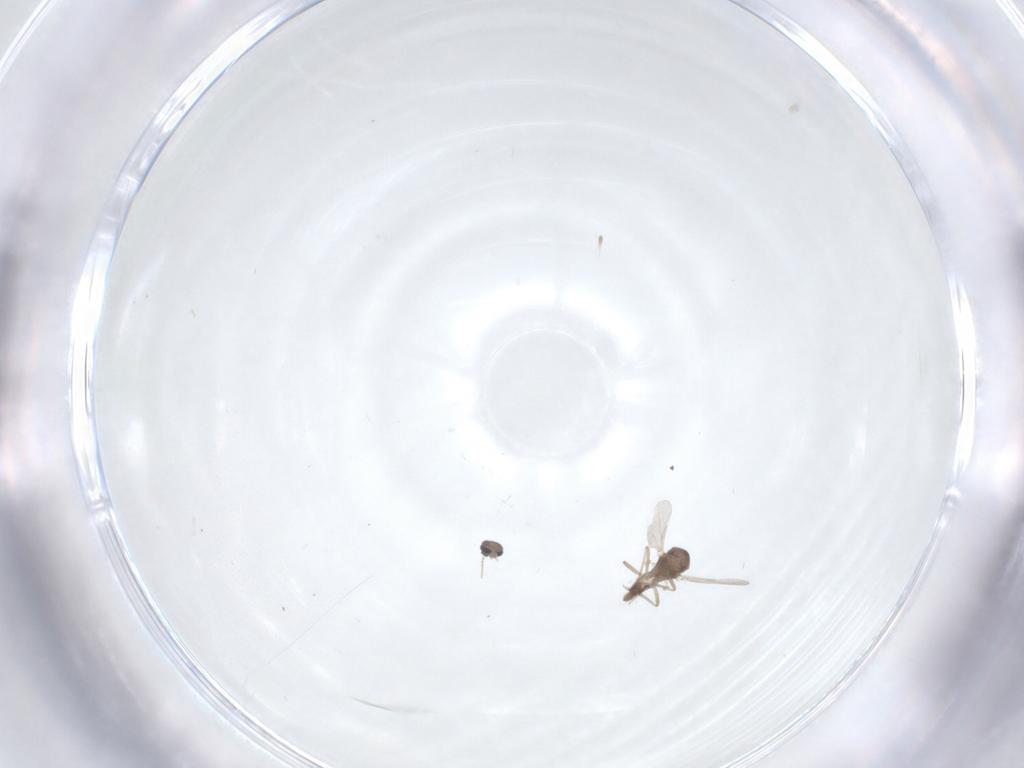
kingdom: Animalia
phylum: Arthropoda
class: Insecta
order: Diptera
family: Ceratopogonidae
